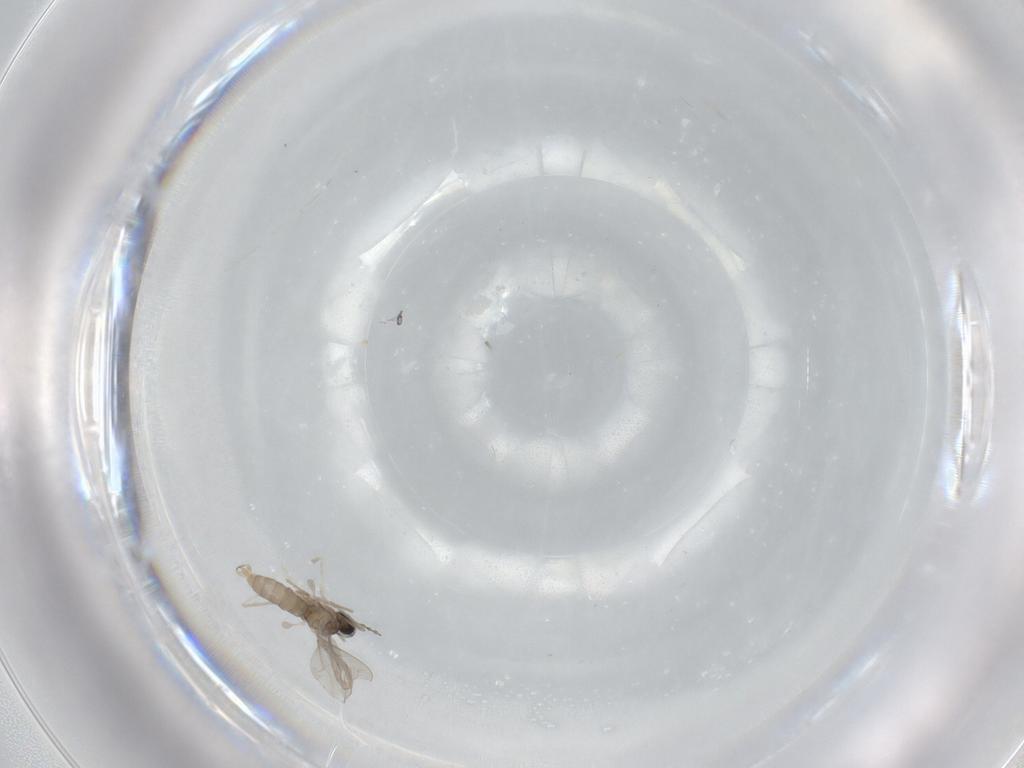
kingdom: Animalia
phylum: Arthropoda
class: Insecta
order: Diptera
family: Cecidomyiidae
